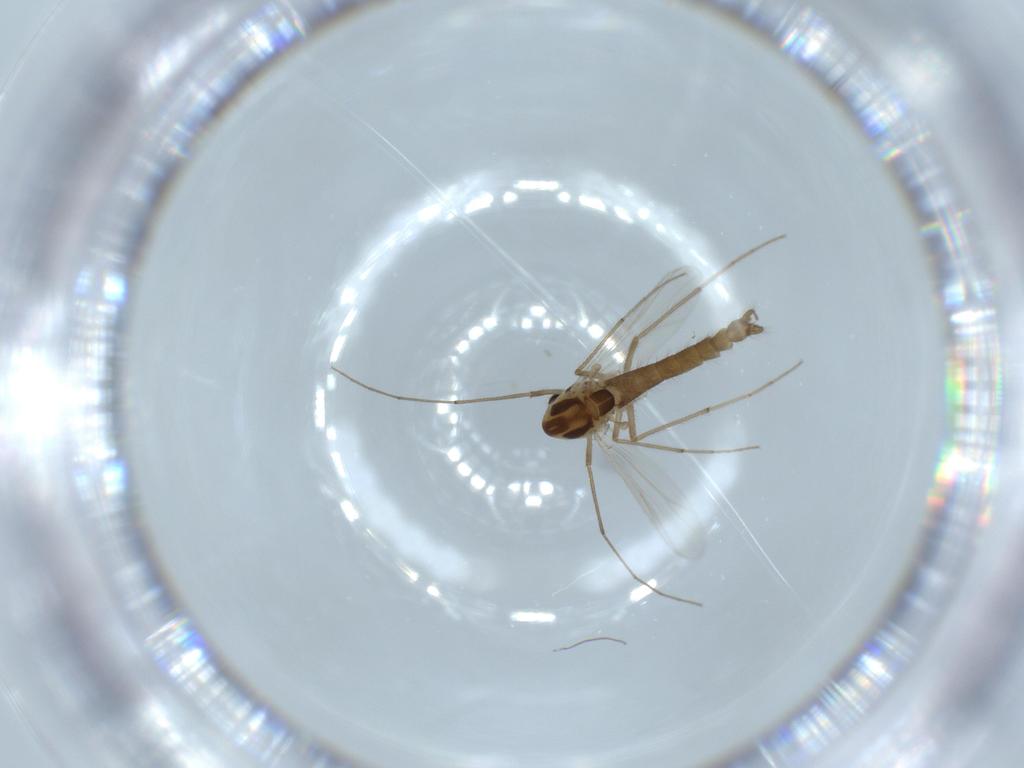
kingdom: Animalia
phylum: Arthropoda
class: Insecta
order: Diptera
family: Chironomidae
